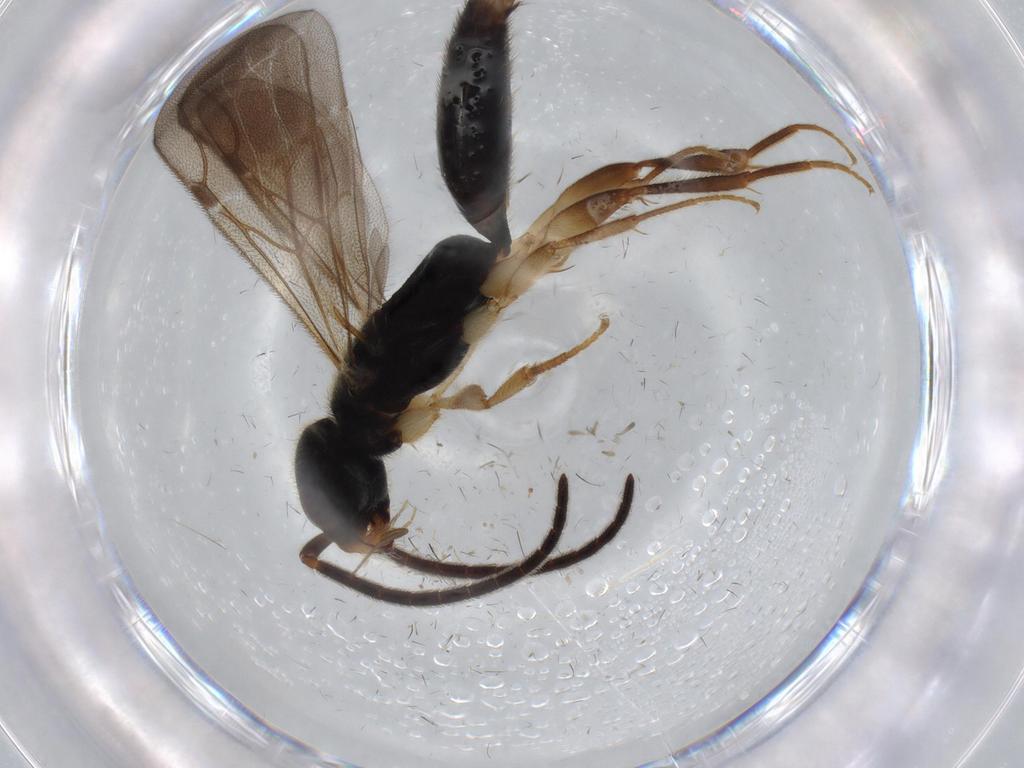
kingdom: Animalia
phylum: Arthropoda
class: Insecta
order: Hymenoptera
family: Bethylidae
